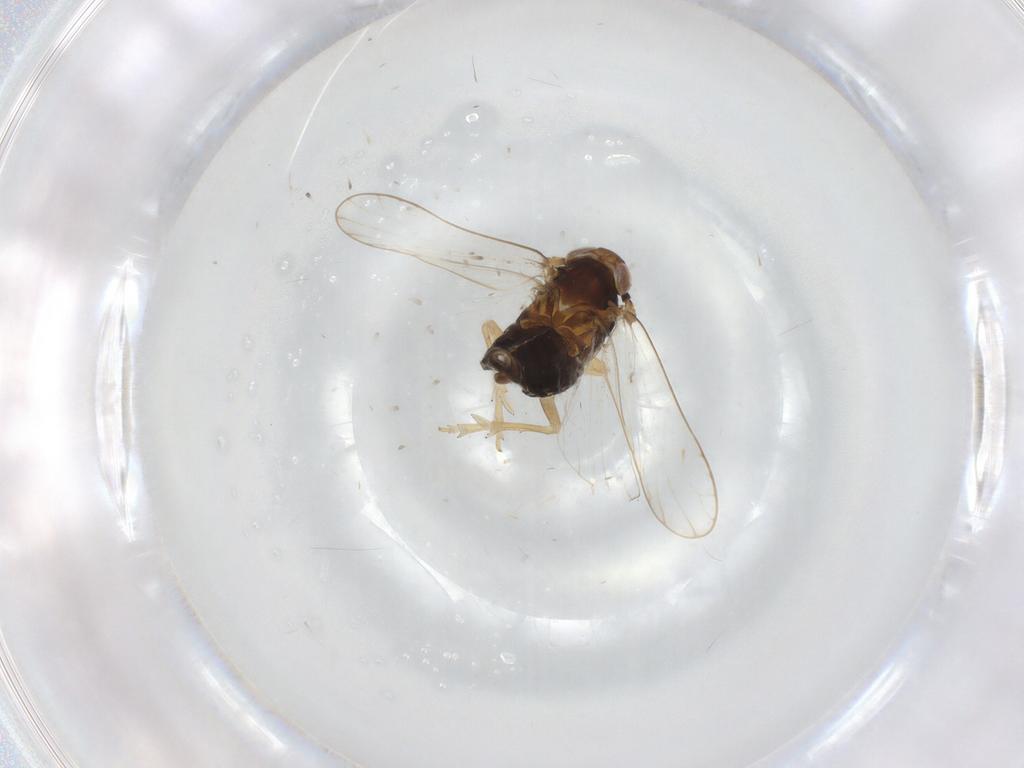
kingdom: Animalia
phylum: Arthropoda
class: Insecta
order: Hemiptera
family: Delphacidae
